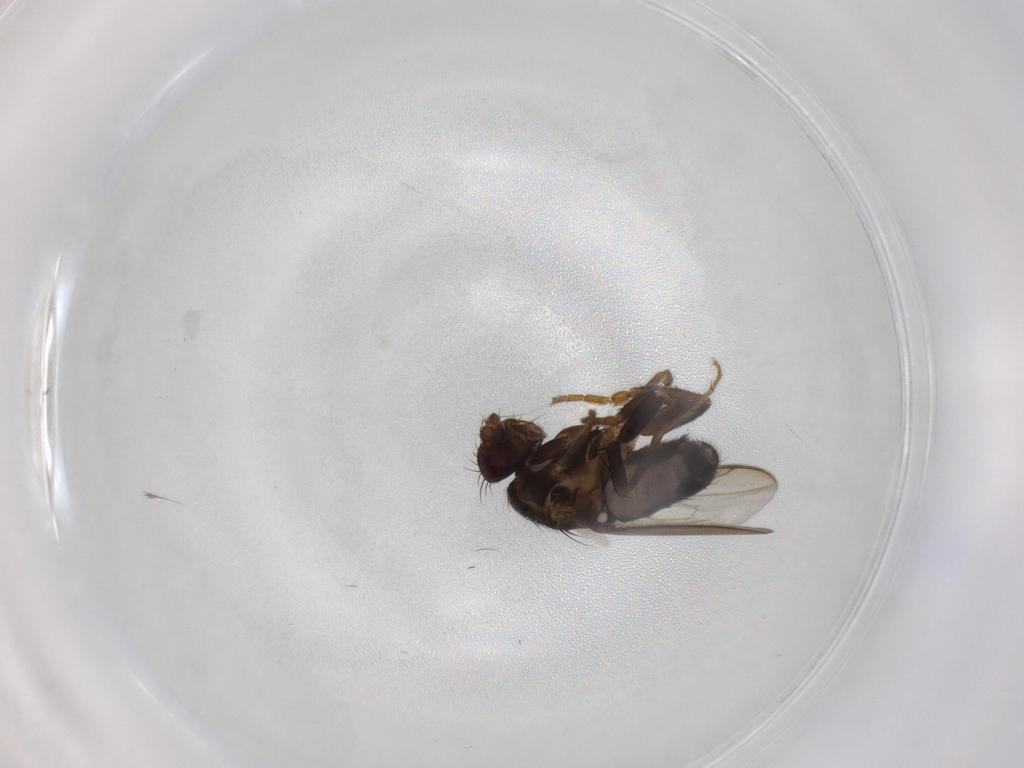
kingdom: Animalia
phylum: Arthropoda
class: Insecta
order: Diptera
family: Sphaeroceridae
